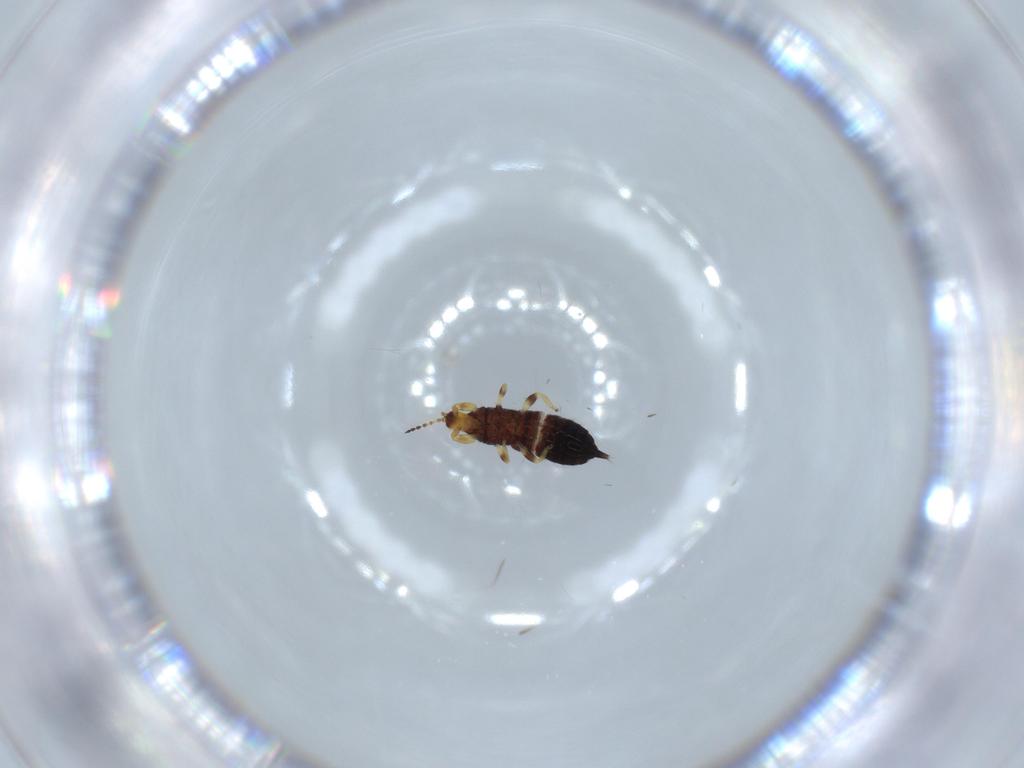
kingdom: Animalia
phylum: Arthropoda
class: Insecta
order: Thysanoptera
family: Phlaeothripidae
